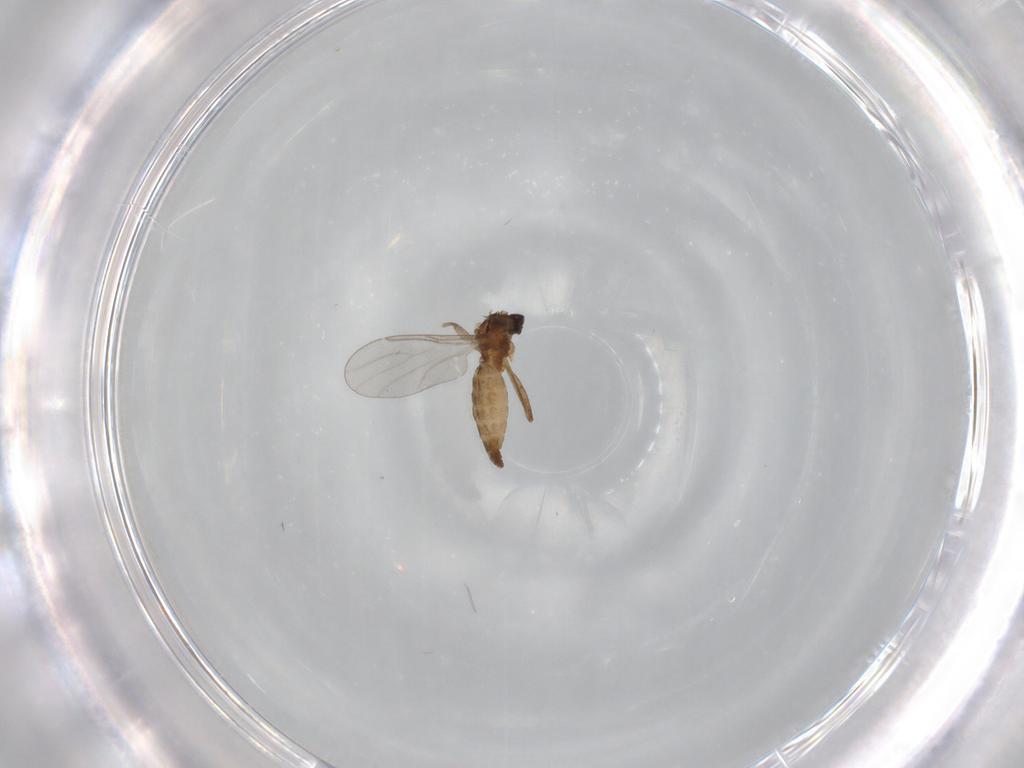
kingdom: Animalia
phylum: Arthropoda
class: Insecta
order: Diptera
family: Cecidomyiidae
